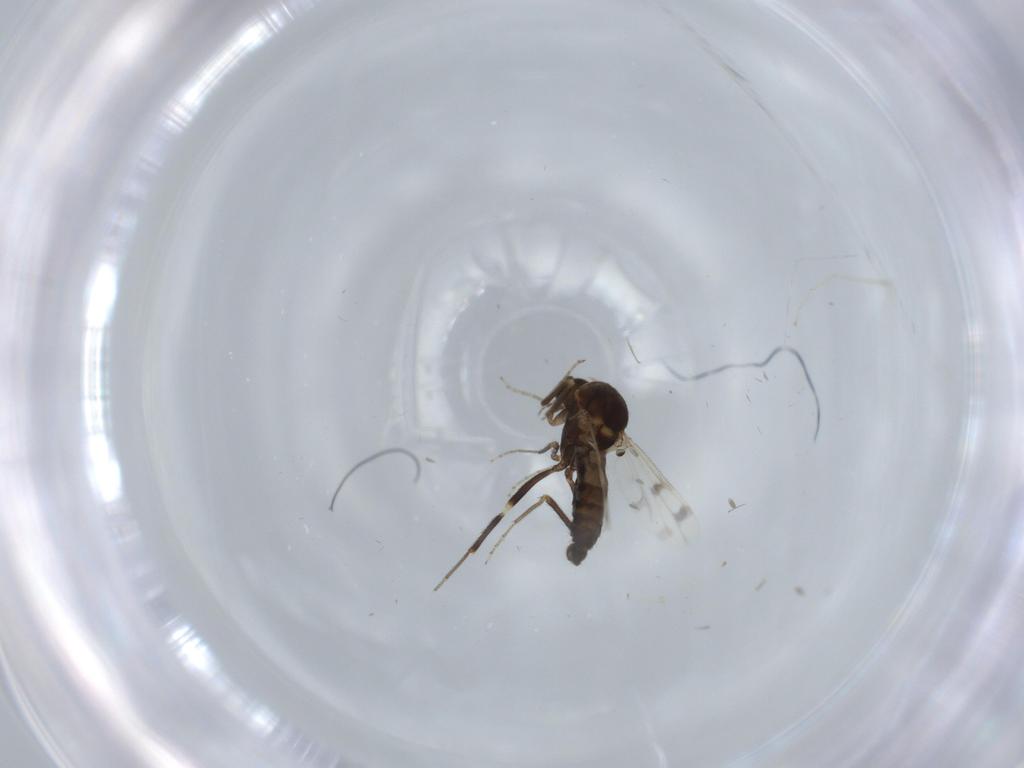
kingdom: Animalia
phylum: Arthropoda
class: Insecta
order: Diptera
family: Ceratopogonidae
